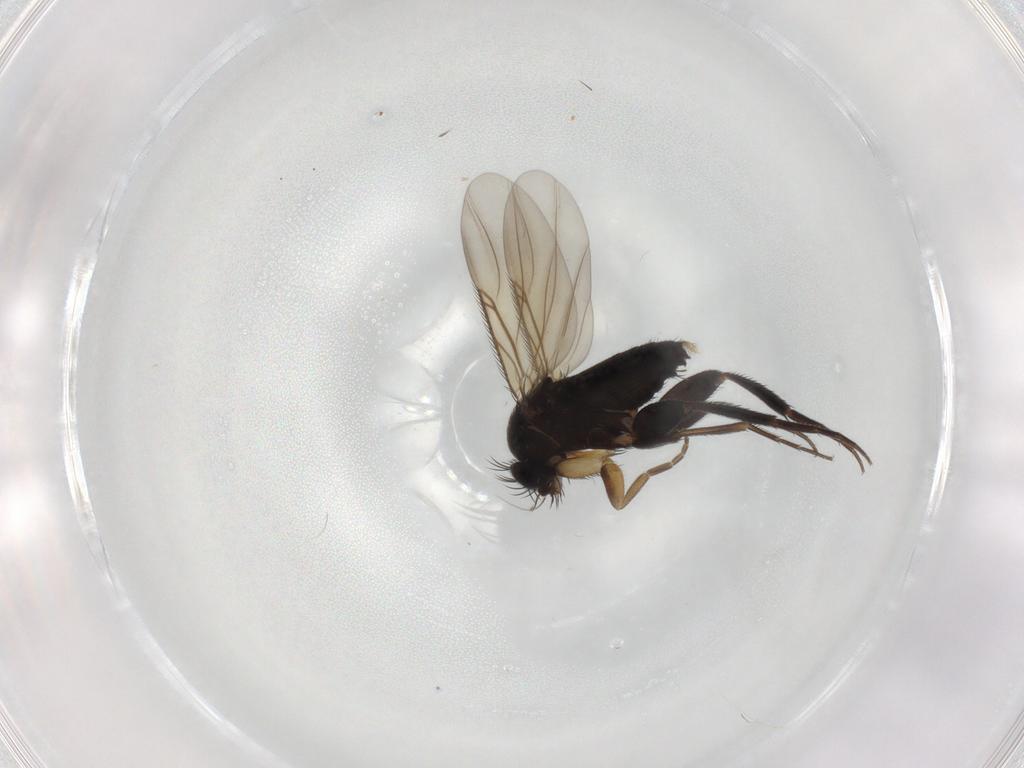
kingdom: Animalia
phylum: Arthropoda
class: Insecta
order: Diptera
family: Phoridae
